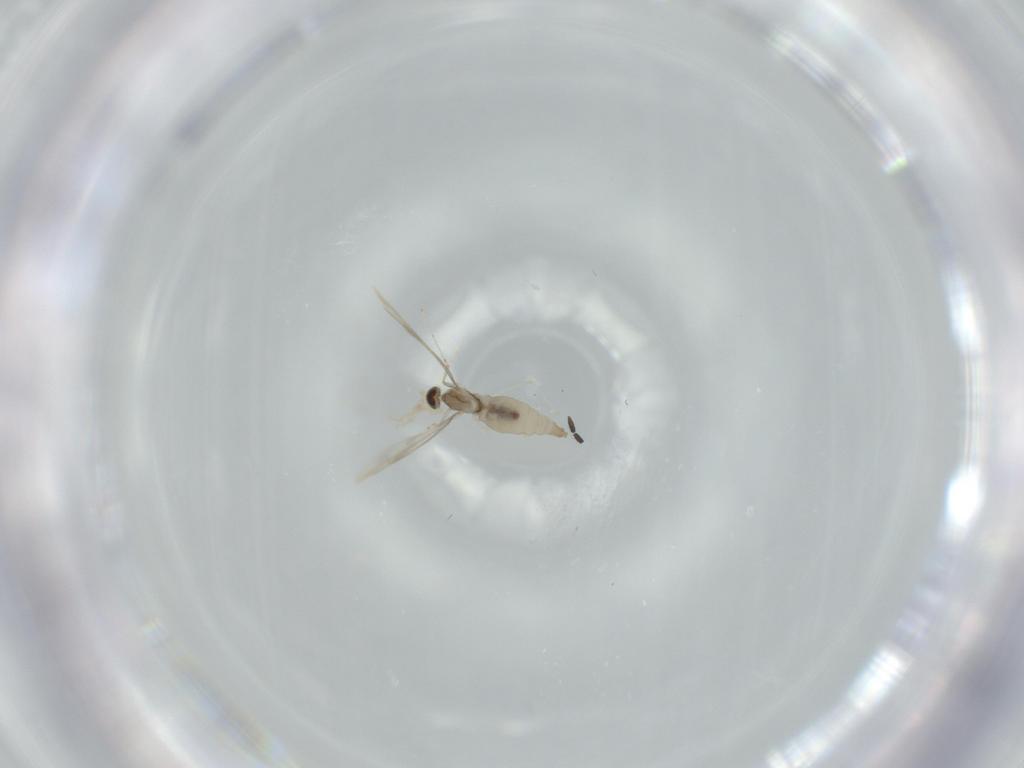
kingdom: Animalia
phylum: Arthropoda
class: Insecta
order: Diptera
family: Cecidomyiidae
